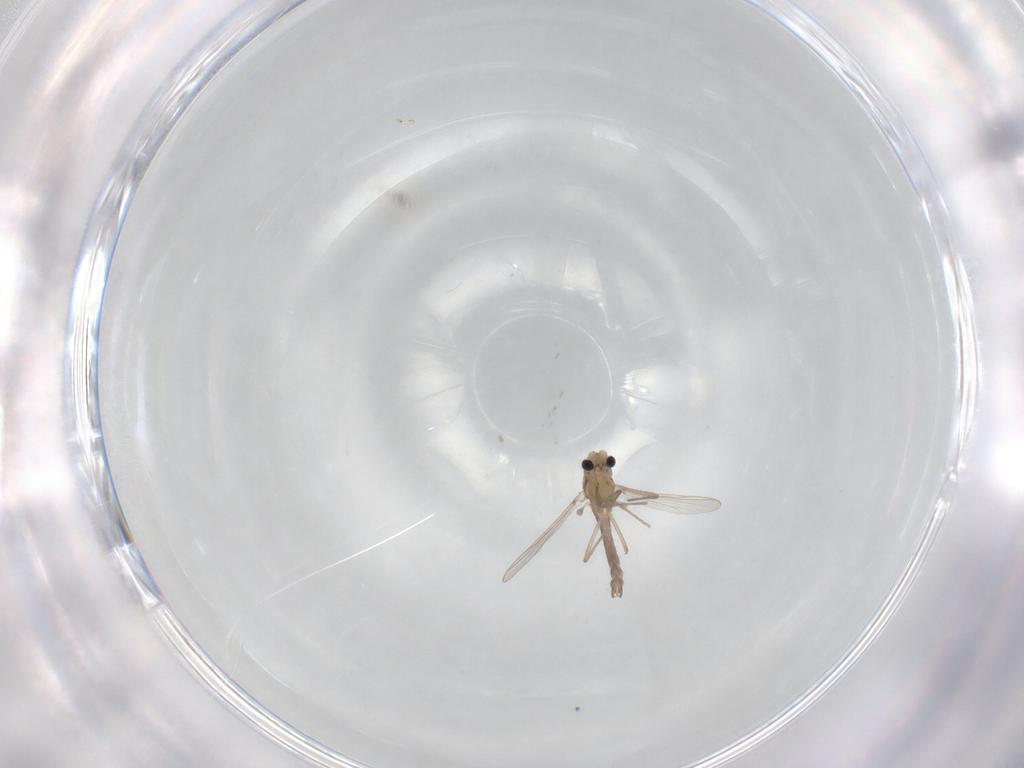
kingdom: Animalia
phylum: Arthropoda
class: Insecta
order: Diptera
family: Chironomidae
